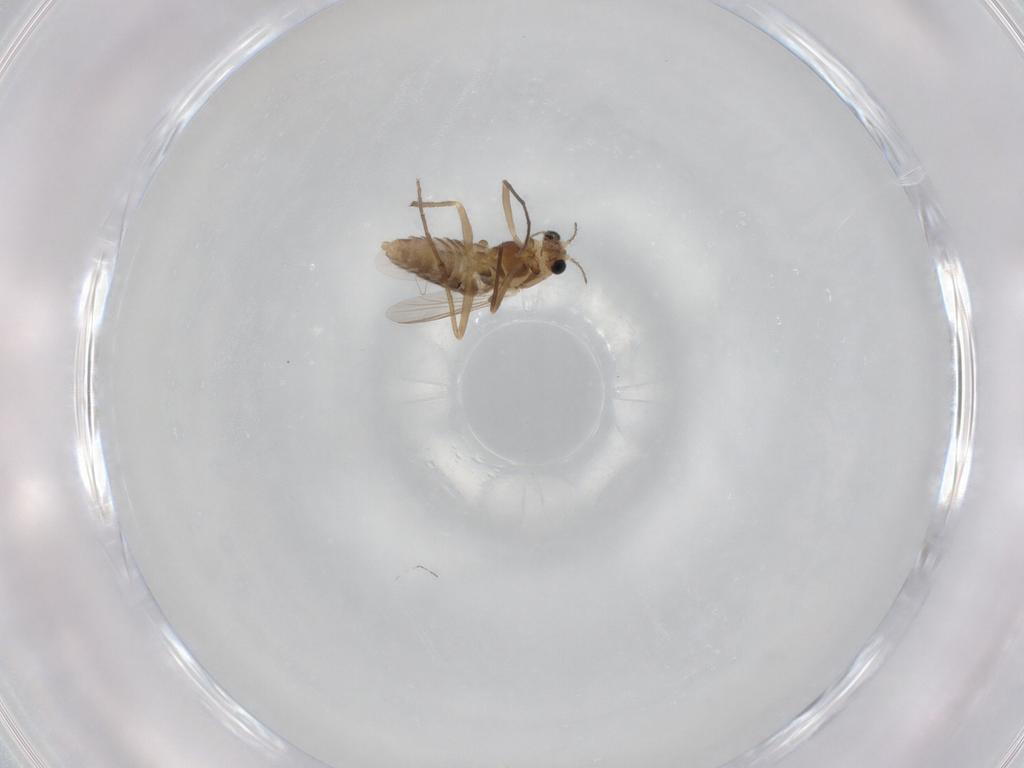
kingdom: Animalia
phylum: Arthropoda
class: Insecta
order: Diptera
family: Chironomidae
